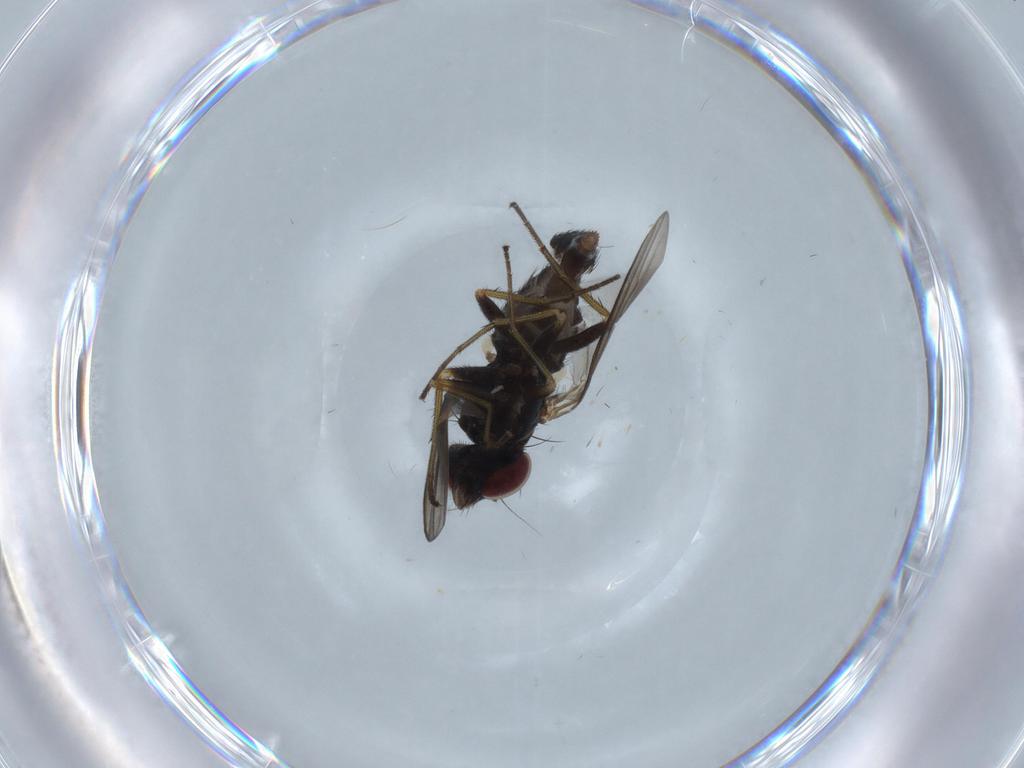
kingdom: Animalia
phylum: Arthropoda
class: Insecta
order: Diptera
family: Dolichopodidae
